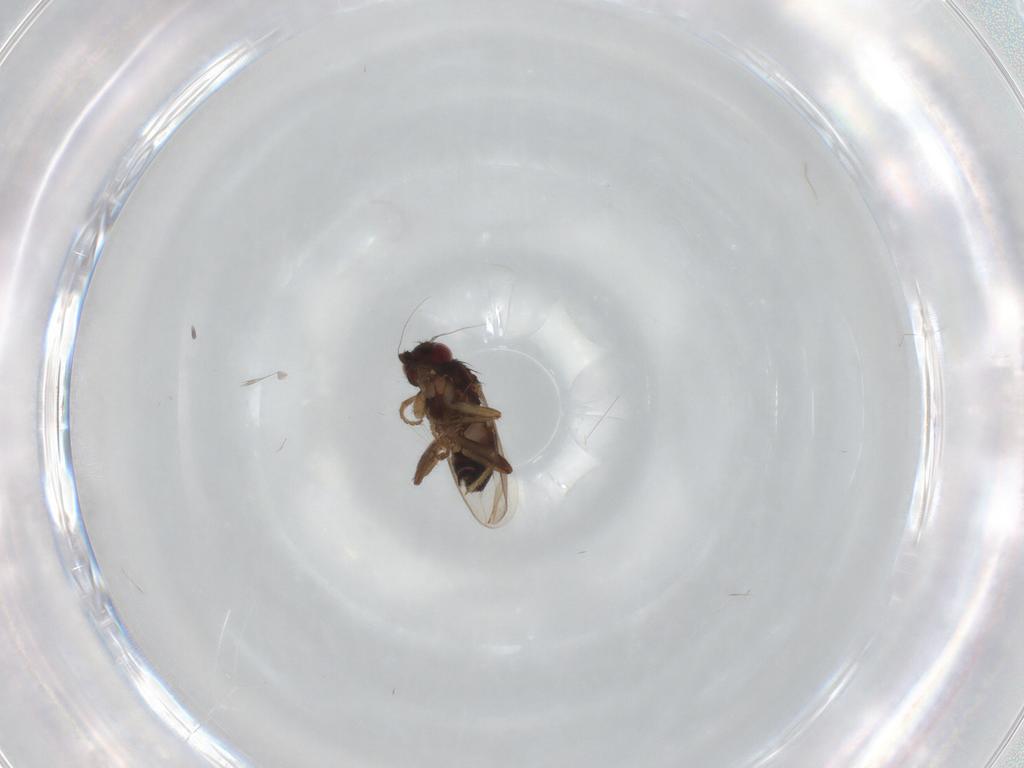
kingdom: Animalia
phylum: Arthropoda
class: Insecta
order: Diptera
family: Sphaeroceridae
